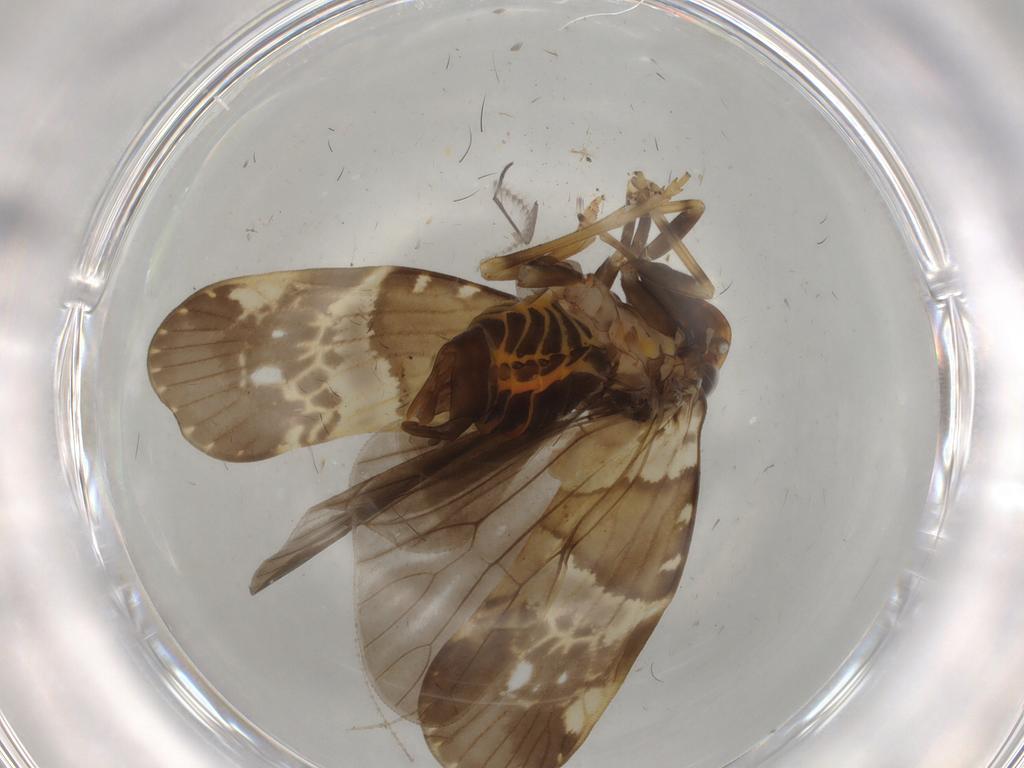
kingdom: Animalia
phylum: Arthropoda
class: Insecta
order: Hemiptera
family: Cixiidae
